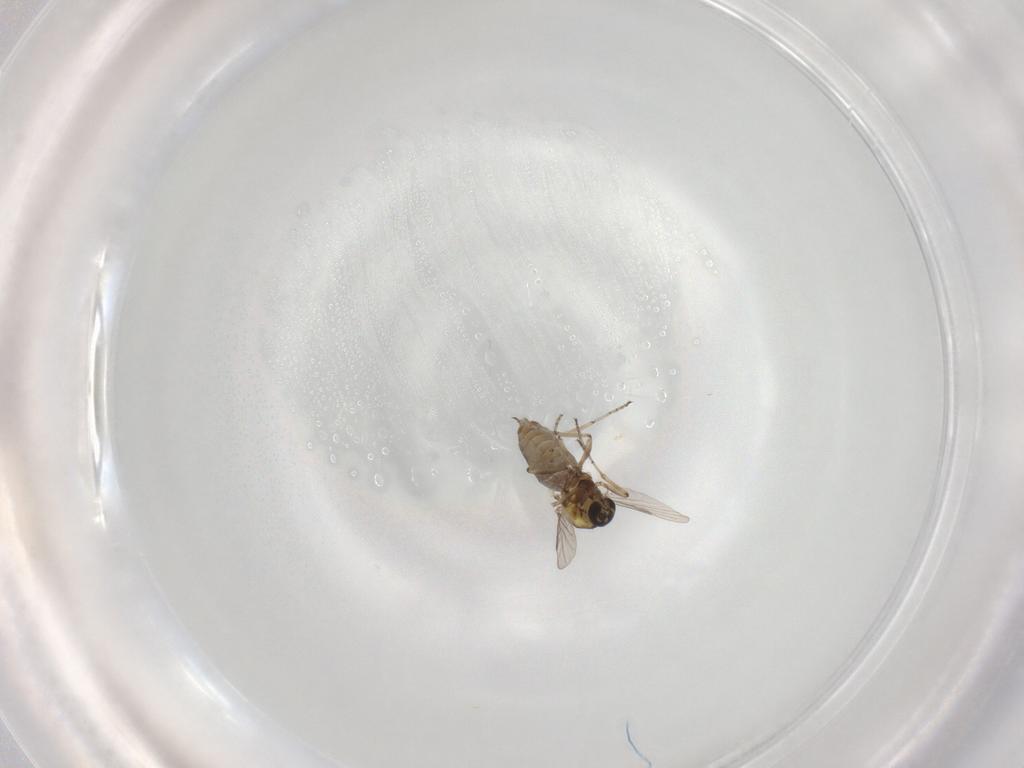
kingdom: Animalia
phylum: Arthropoda
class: Insecta
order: Diptera
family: Ceratopogonidae
